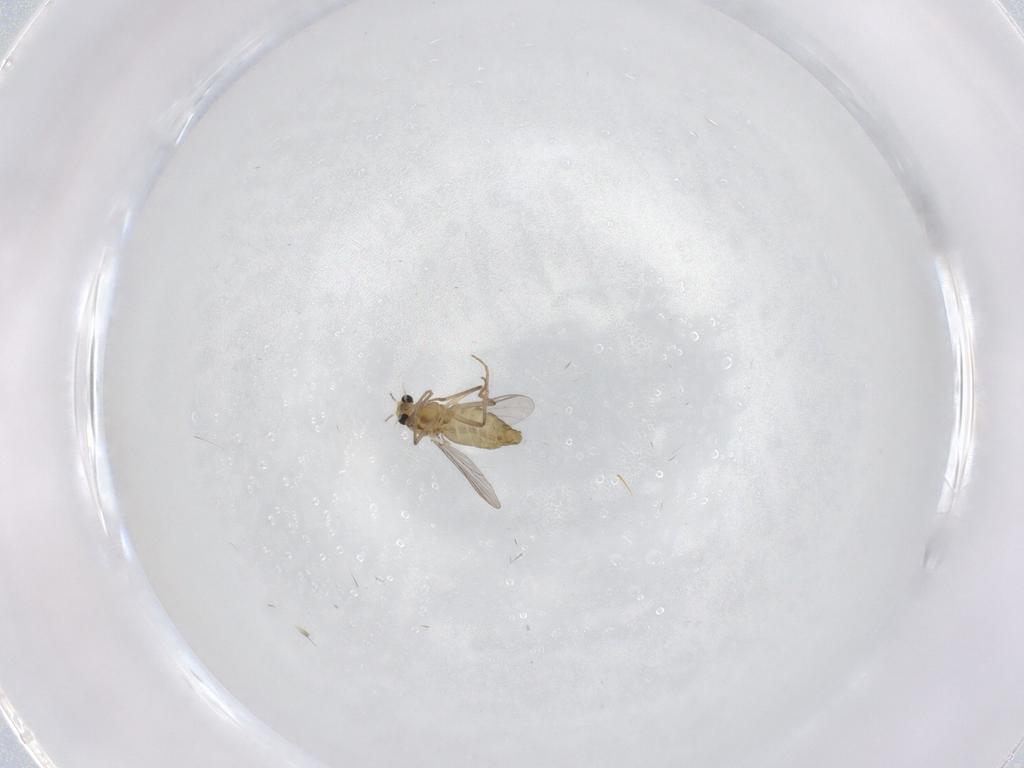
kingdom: Animalia
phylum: Arthropoda
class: Insecta
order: Diptera
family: Chironomidae
